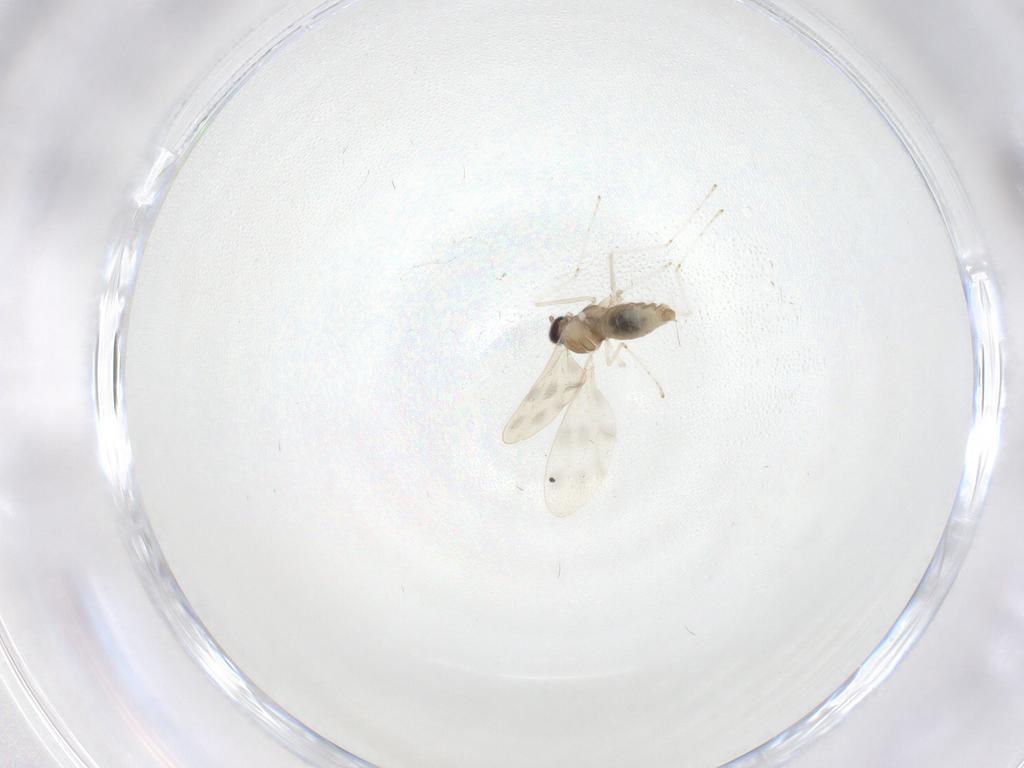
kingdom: Animalia
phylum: Arthropoda
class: Insecta
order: Diptera
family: Cecidomyiidae
